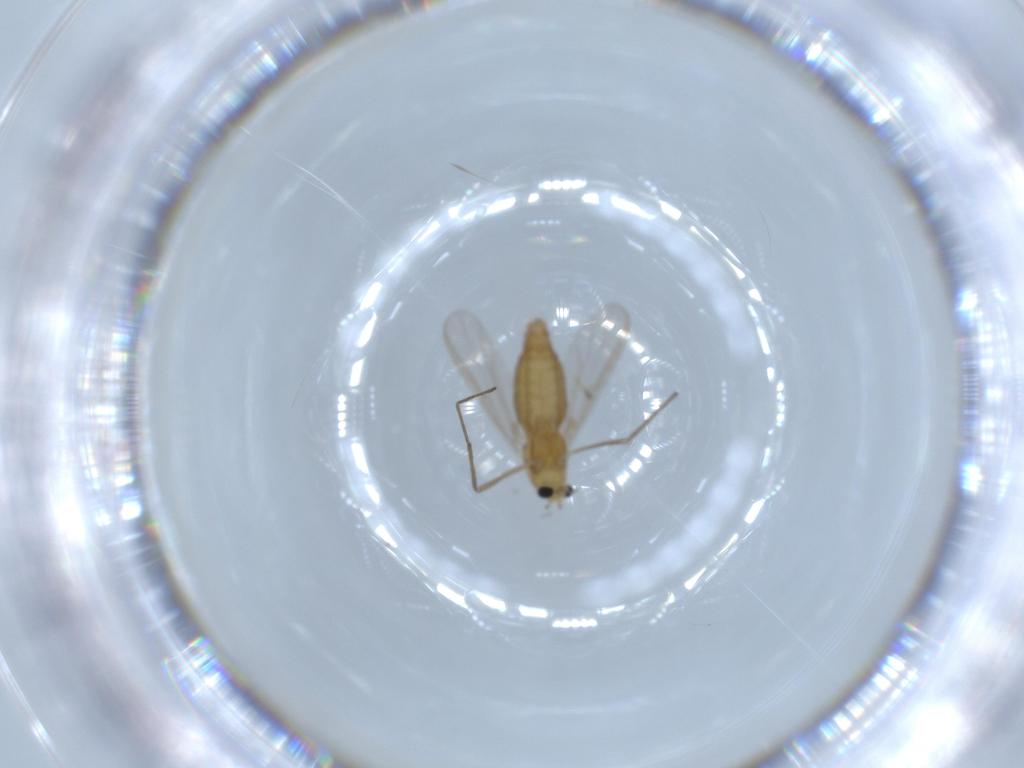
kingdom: Animalia
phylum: Arthropoda
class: Insecta
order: Diptera
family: Chironomidae
